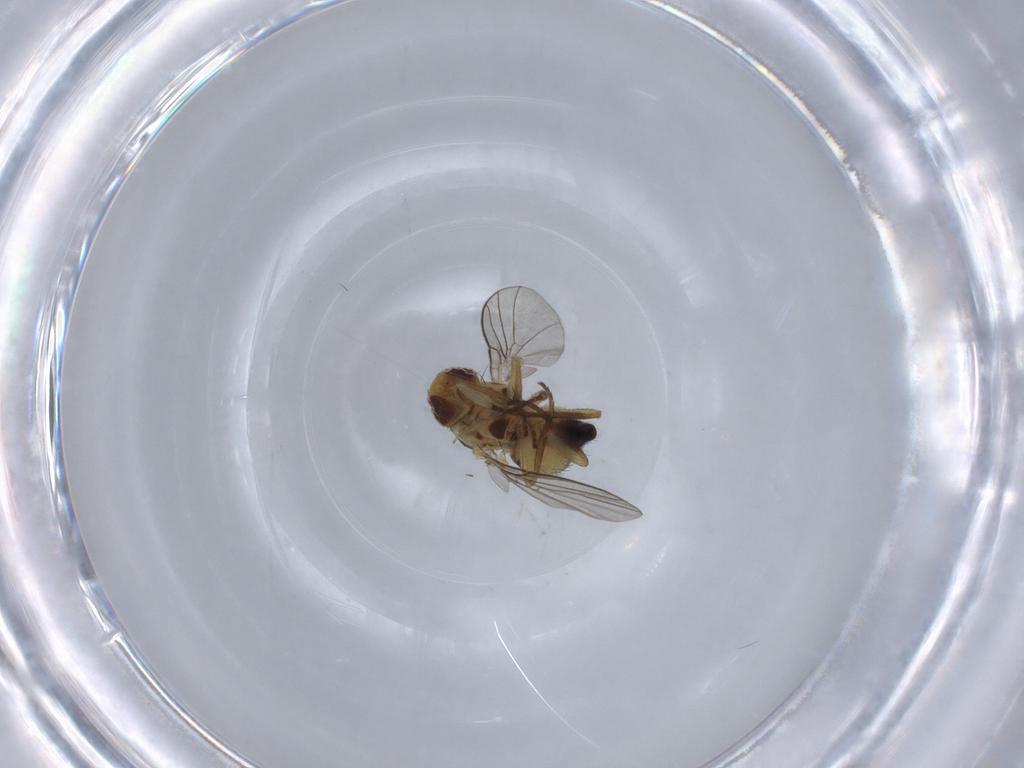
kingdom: Animalia
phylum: Arthropoda
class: Insecta
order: Diptera
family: Agromyzidae
